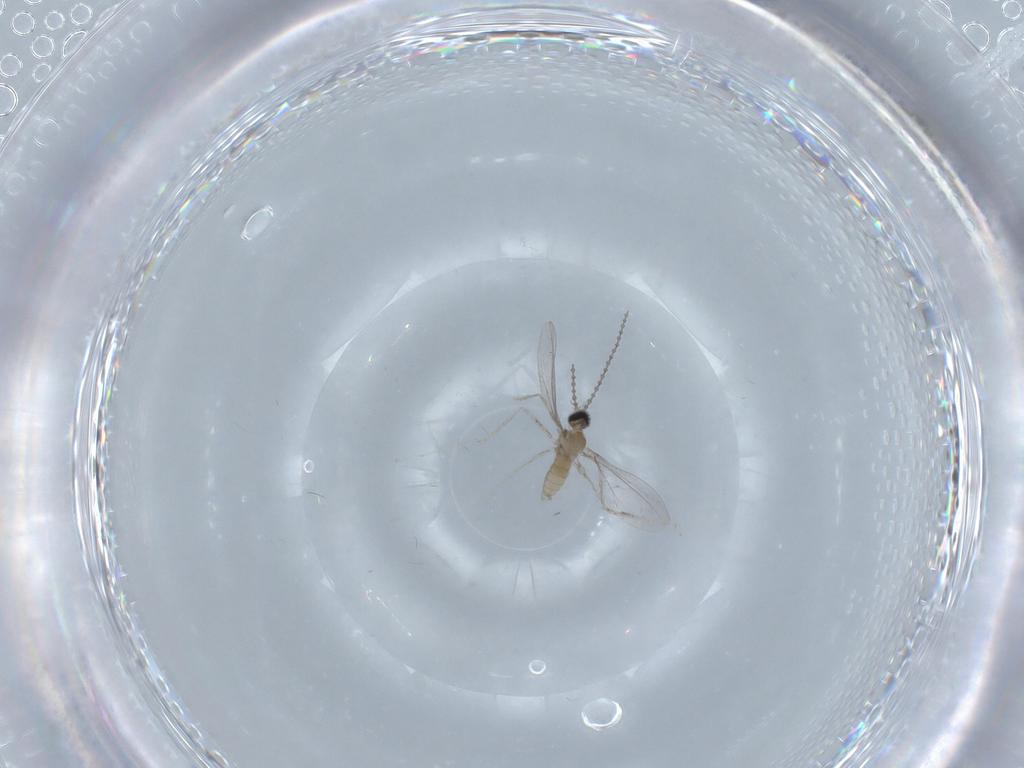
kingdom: Animalia
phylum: Arthropoda
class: Insecta
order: Diptera
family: Cecidomyiidae
